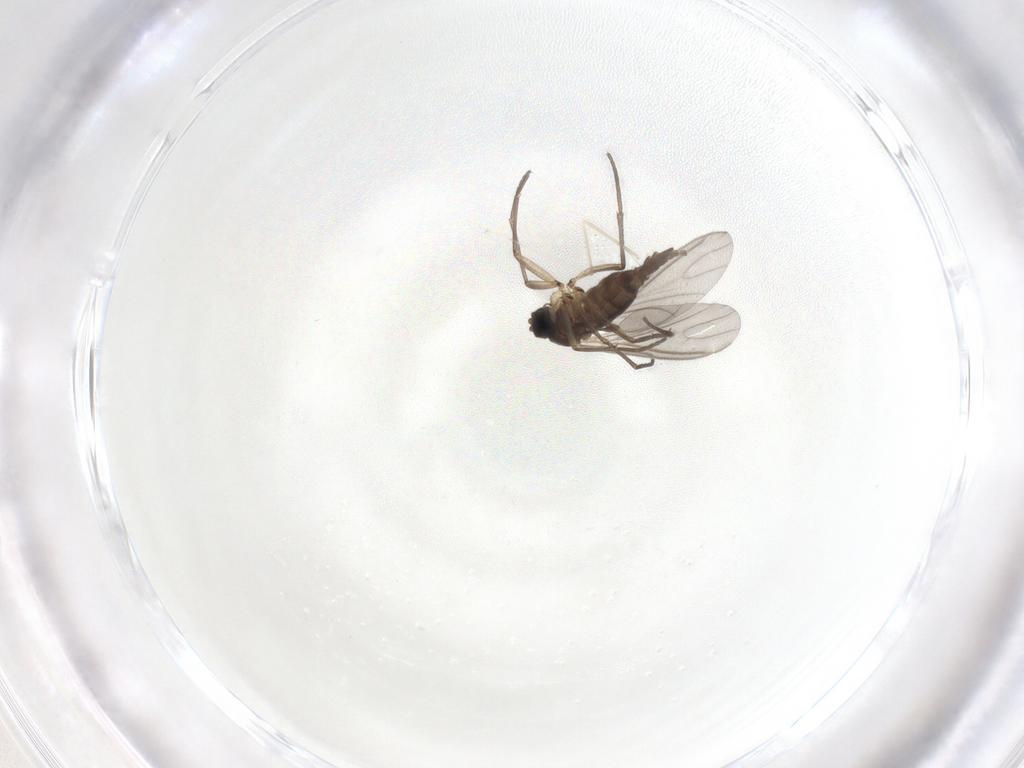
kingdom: Animalia
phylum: Arthropoda
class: Insecta
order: Diptera
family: Sciaridae
